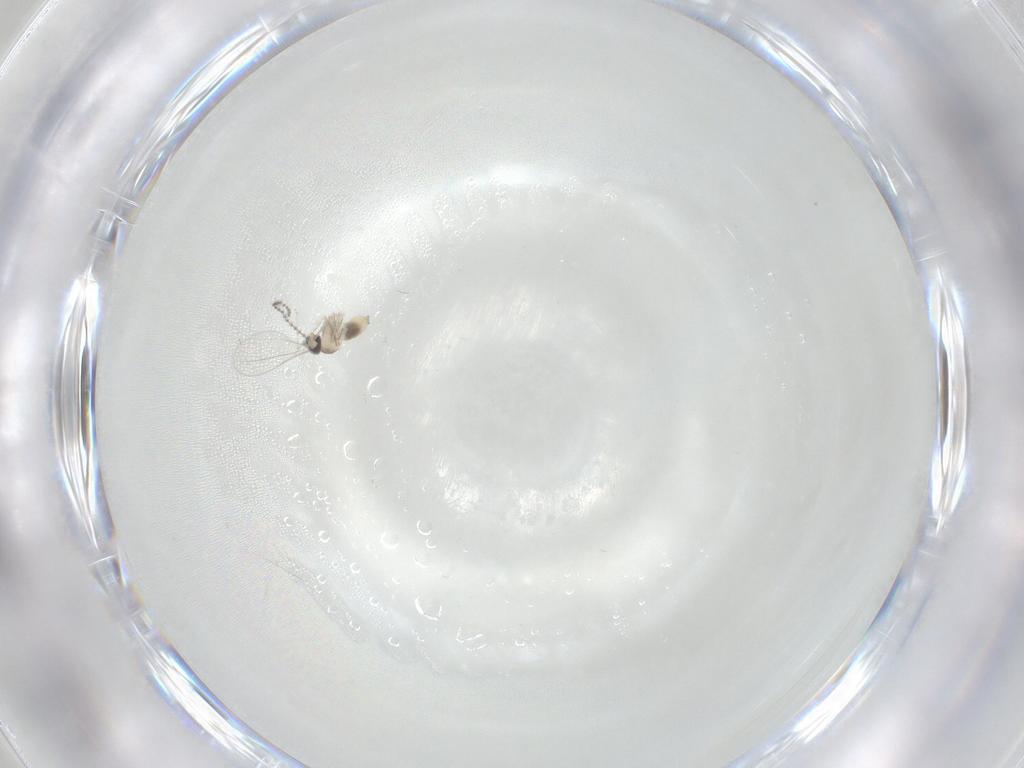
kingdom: Animalia
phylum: Arthropoda
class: Insecta
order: Diptera
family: Cecidomyiidae
